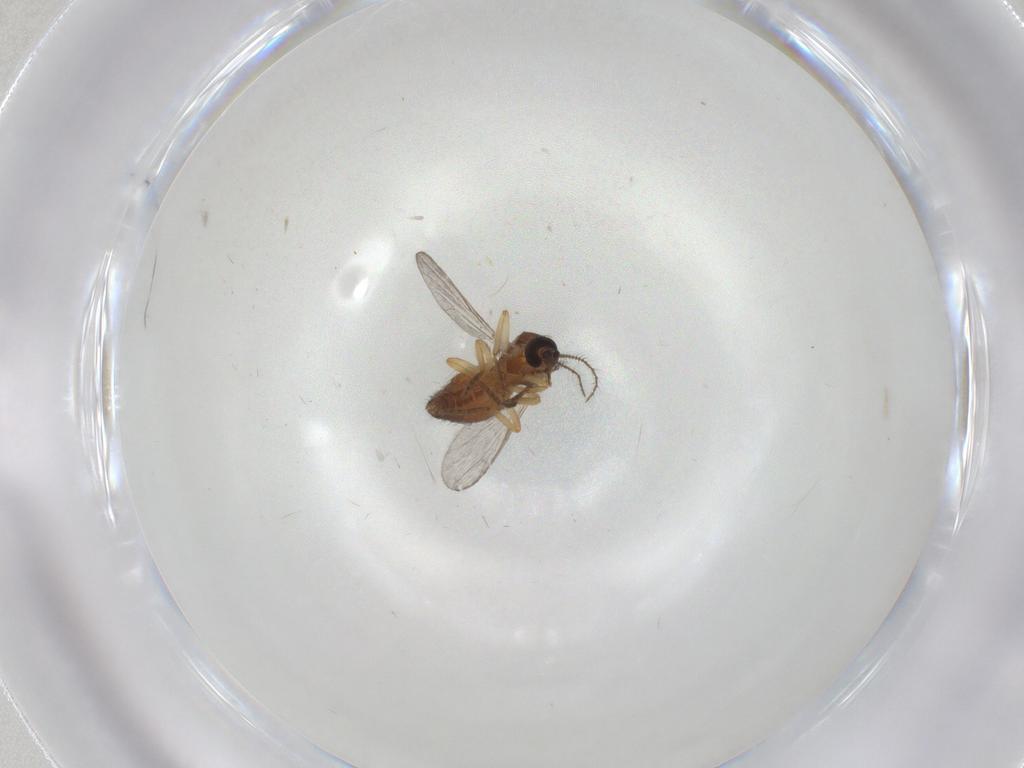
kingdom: Animalia
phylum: Arthropoda
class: Insecta
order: Diptera
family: Ceratopogonidae
